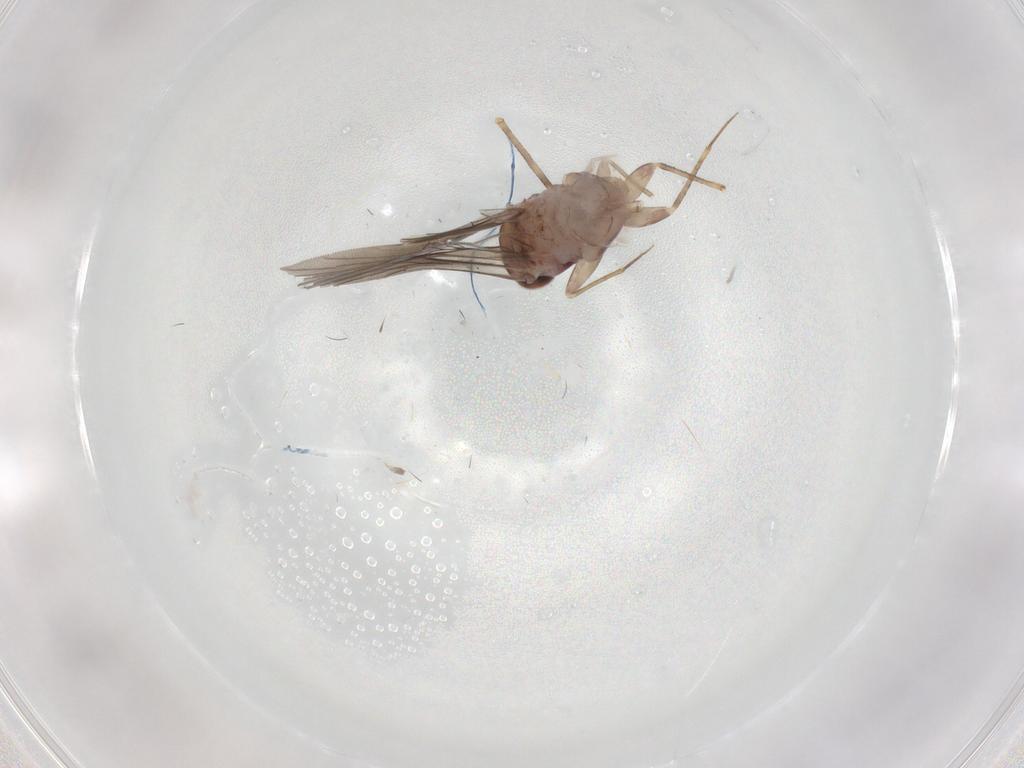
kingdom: Animalia
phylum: Arthropoda
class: Insecta
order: Psocodea
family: Lepidopsocidae
